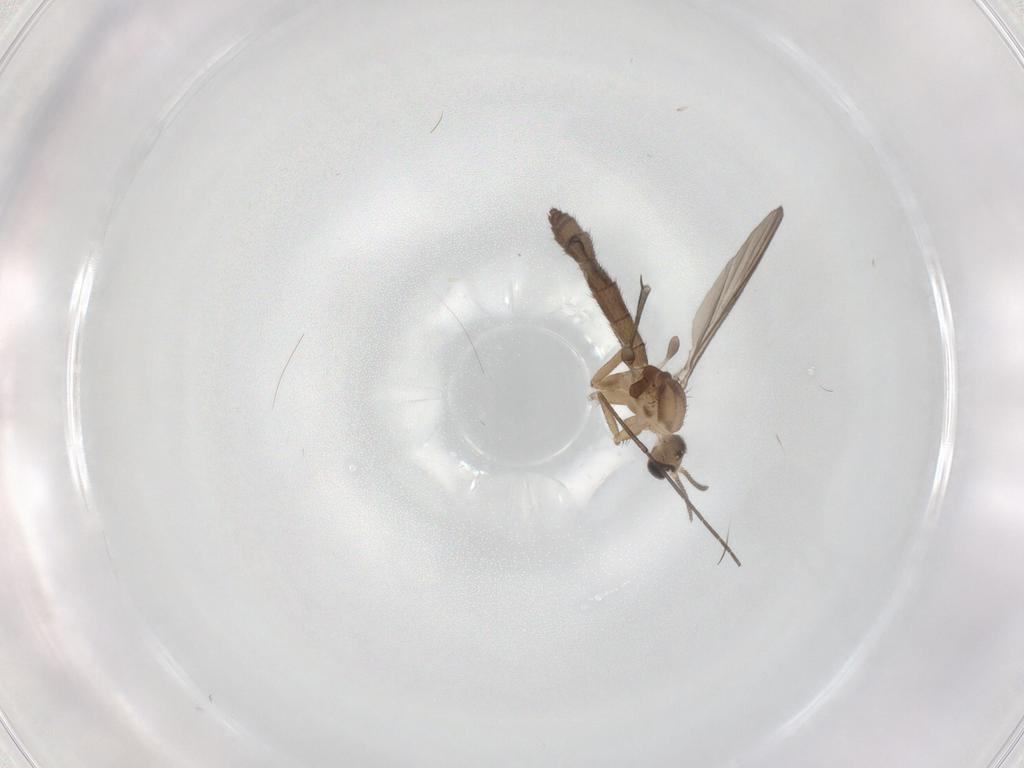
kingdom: Animalia
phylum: Arthropoda
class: Insecta
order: Diptera
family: Keroplatidae
